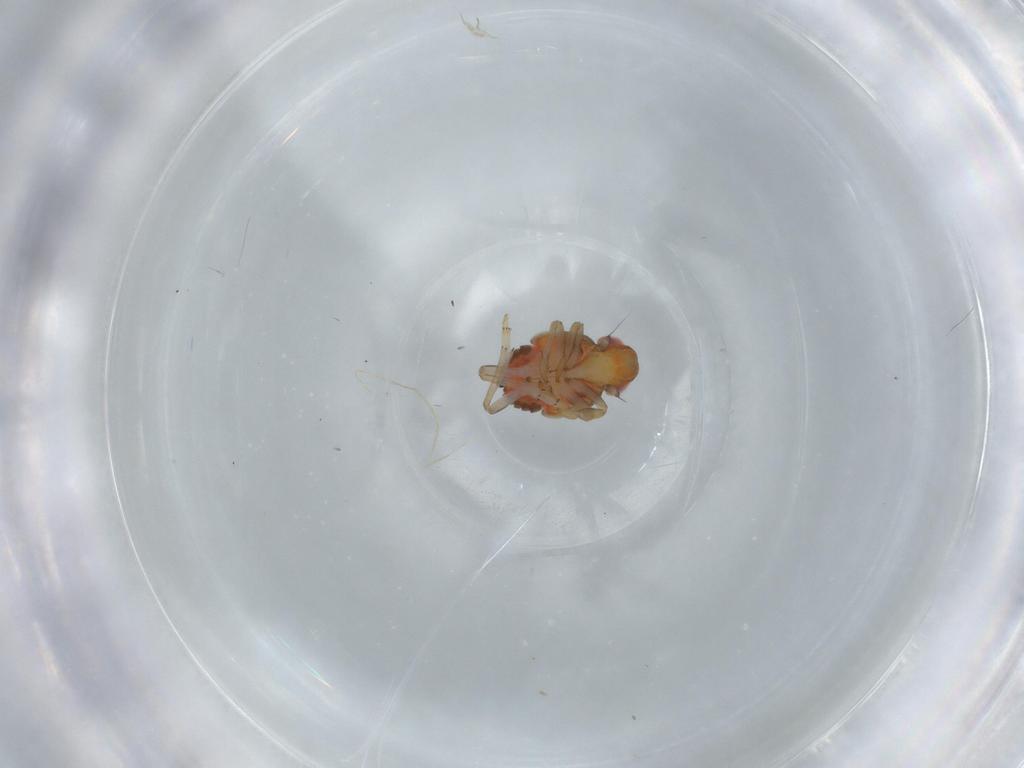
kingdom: Animalia
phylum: Arthropoda
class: Insecta
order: Hemiptera
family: Issidae
